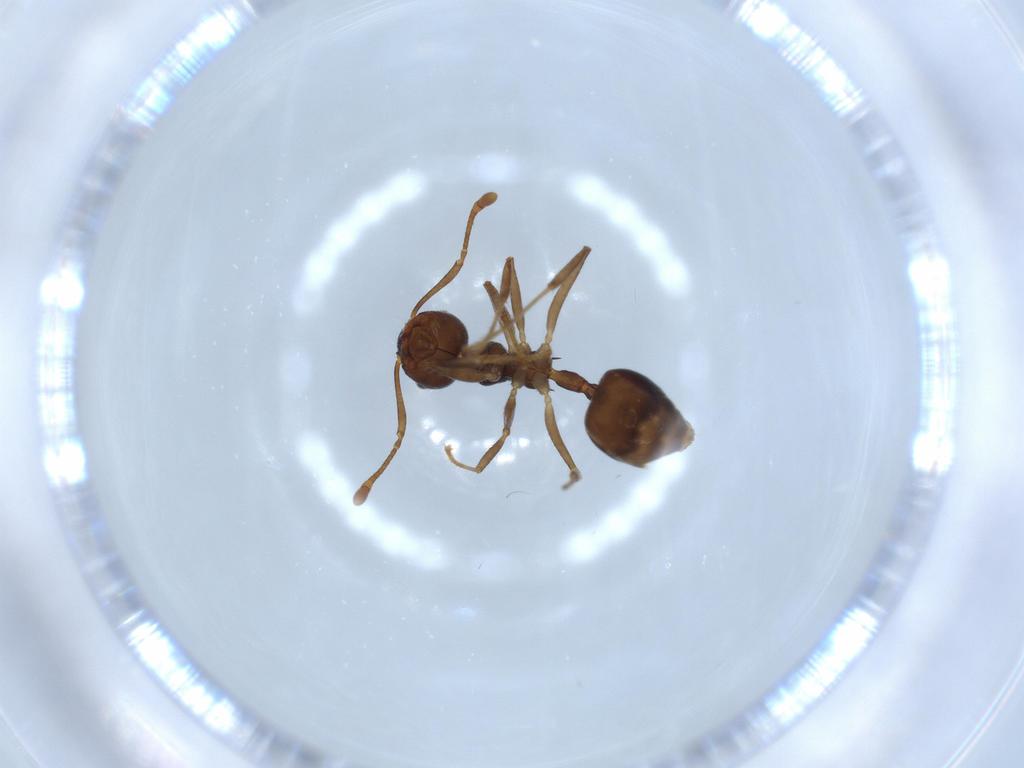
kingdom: Animalia
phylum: Arthropoda
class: Insecta
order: Hymenoptera
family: Formicidae
